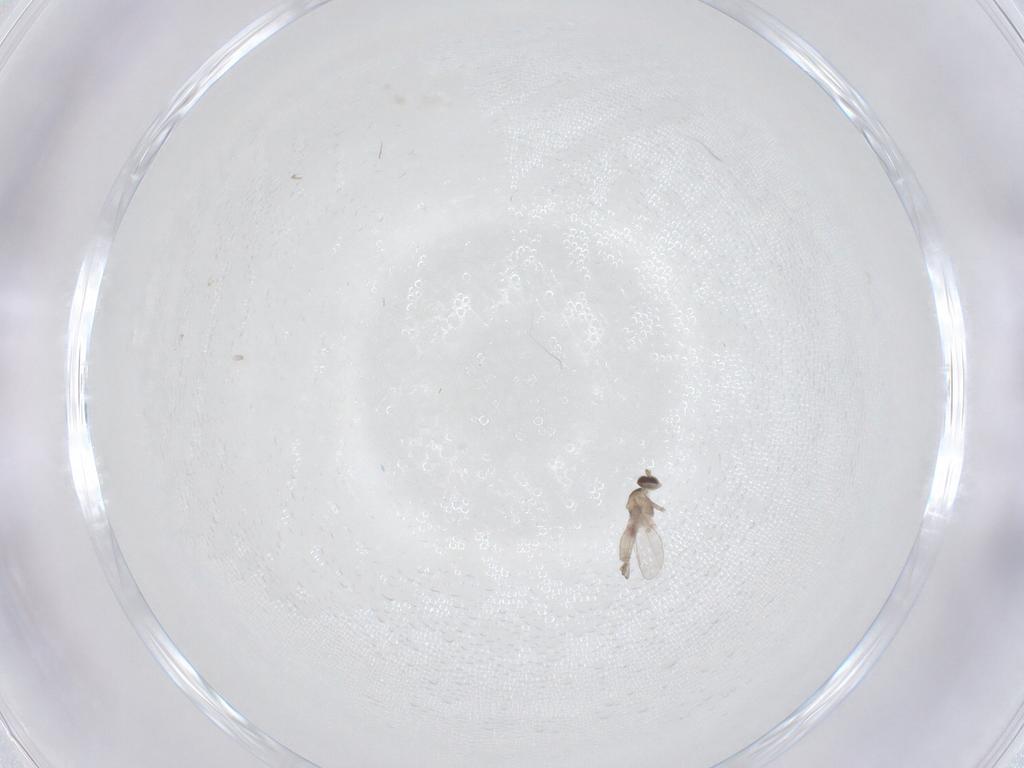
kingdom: Animalia
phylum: Arthropoda
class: Insecta
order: Diptera
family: Cecidomyiidae
